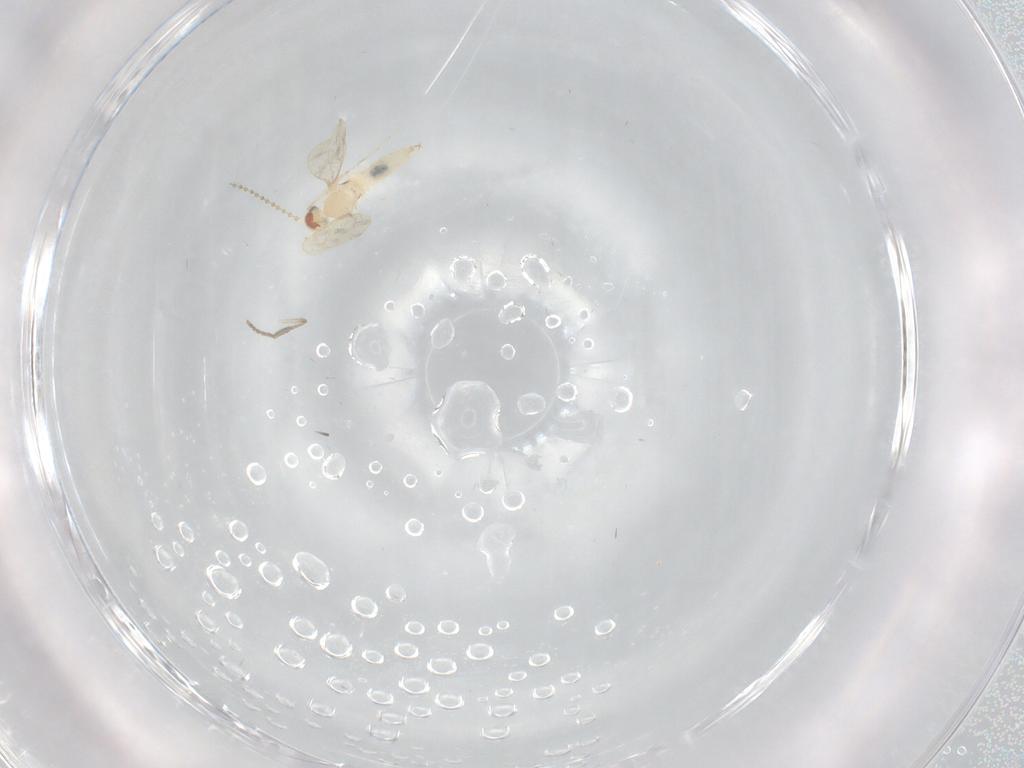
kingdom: Animalia
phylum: Arthropoda
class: Insecta
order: Diptera
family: Cecidomyiidae
